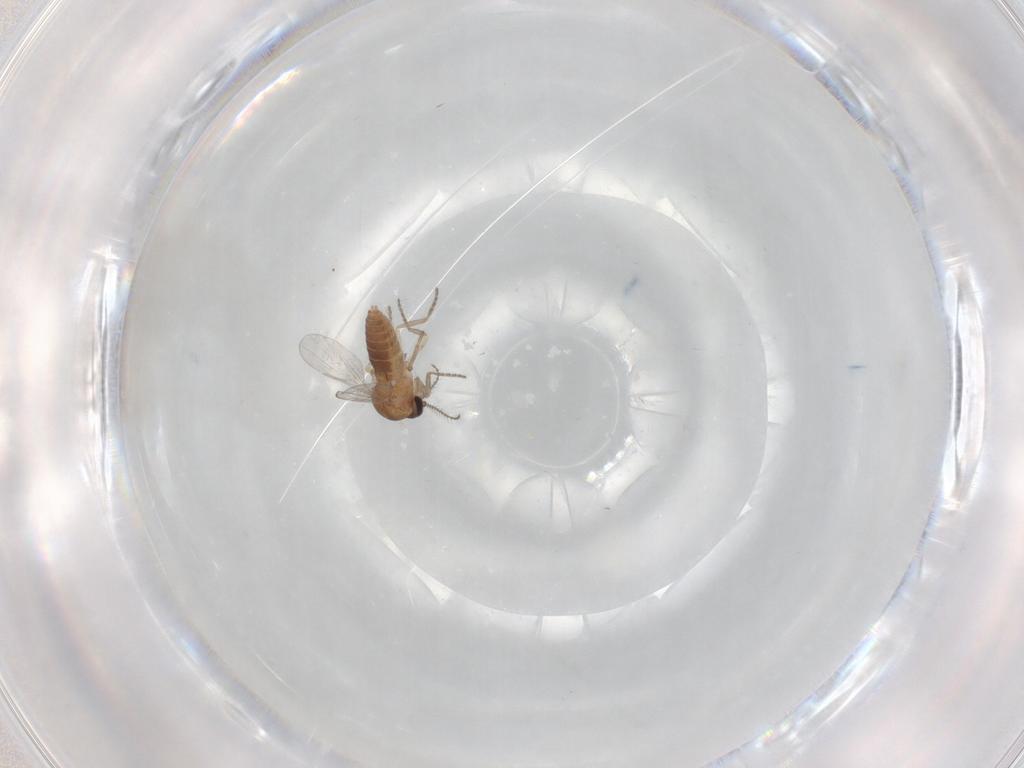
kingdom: Animalia
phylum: Arthropoda
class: Insecta
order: Diptera
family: Ceratopogonidae
